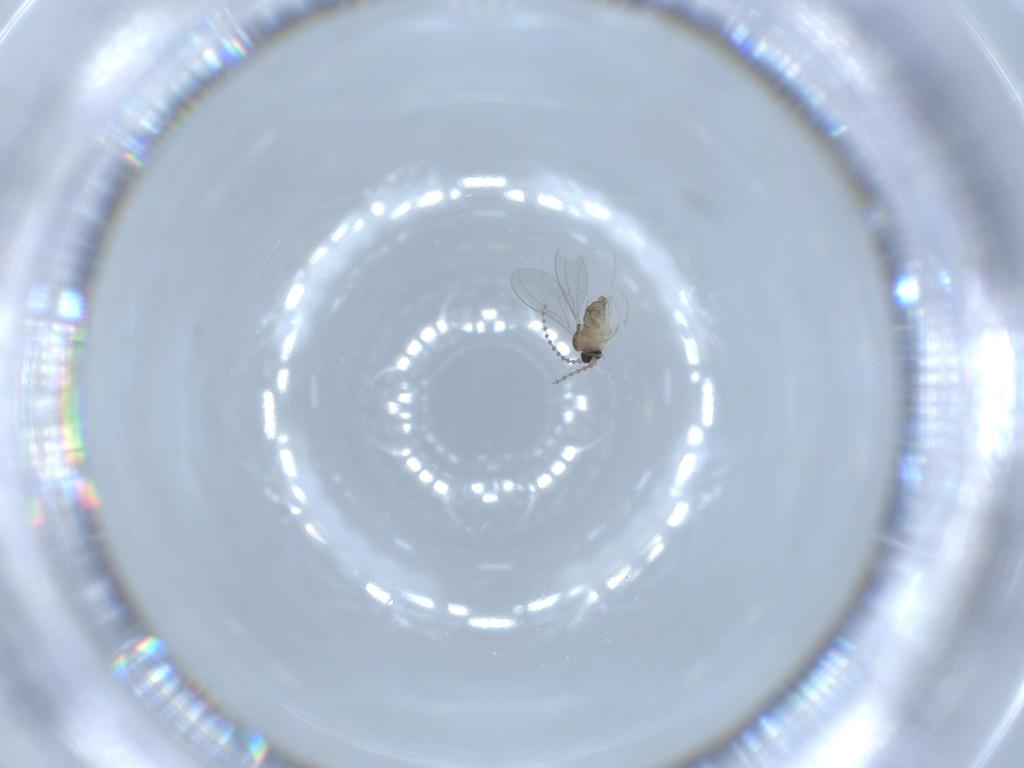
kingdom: Animalia
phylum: Arthropoda
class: Insecta
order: Diptera
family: Cecidomyiidae
